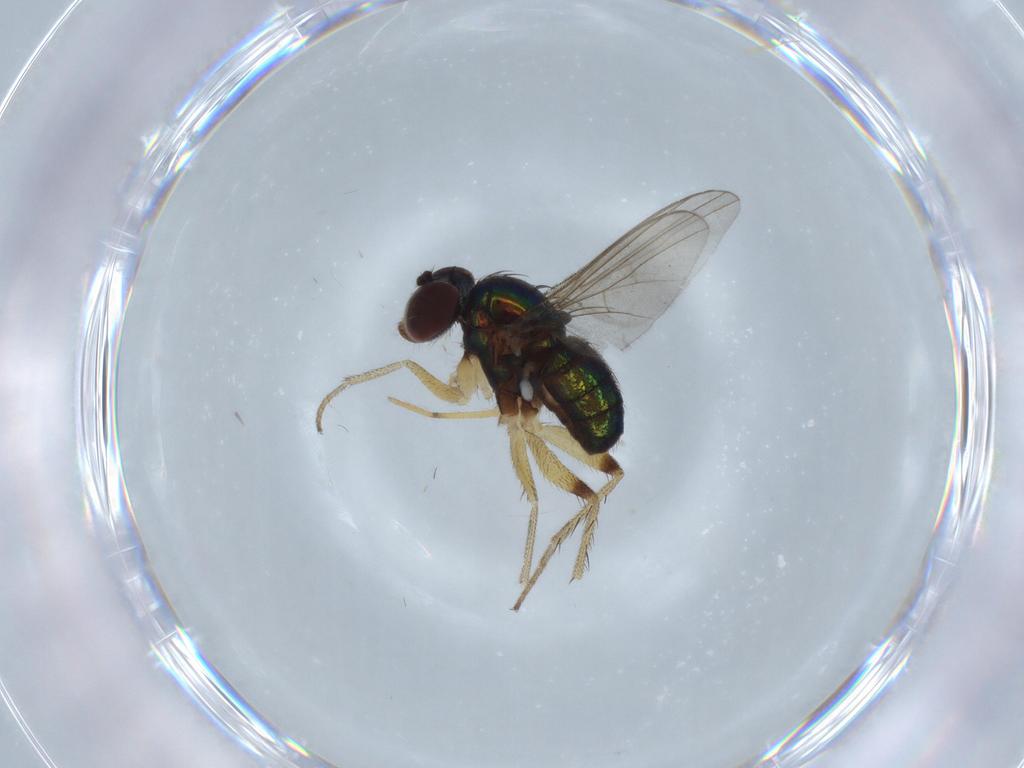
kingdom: Animalia
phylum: Arthropoda
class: Insecta
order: Diptera
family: Sciaridae
